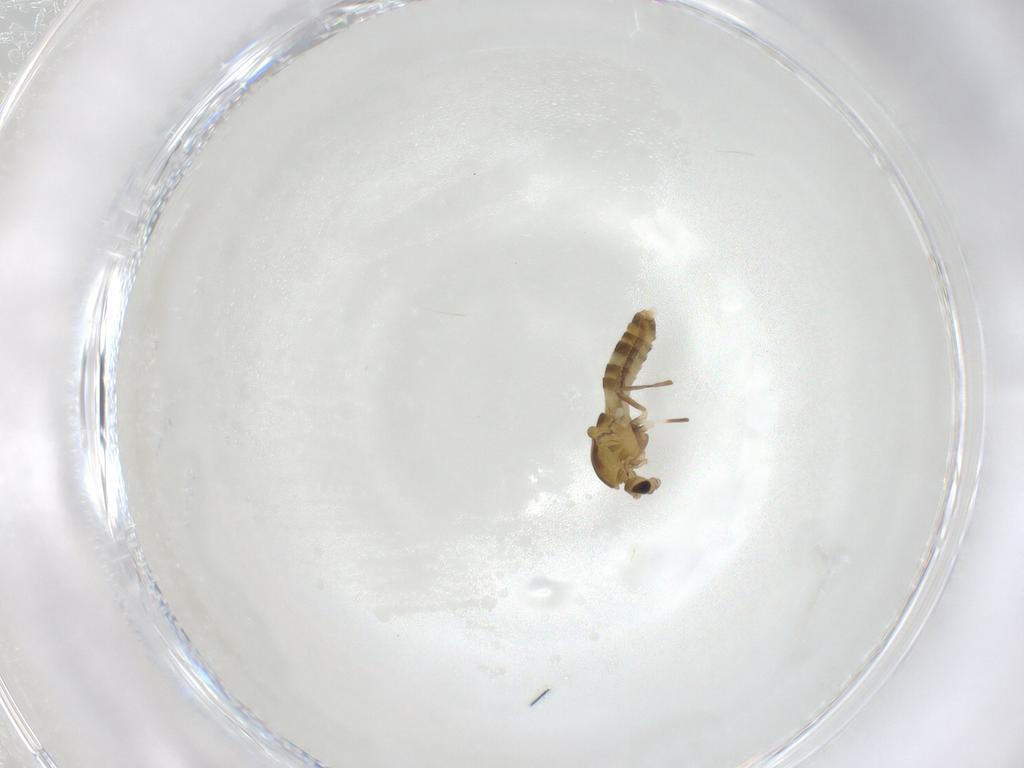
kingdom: Animalia
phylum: Arthropoda
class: Insecta
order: Diptera
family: Chironomidae
